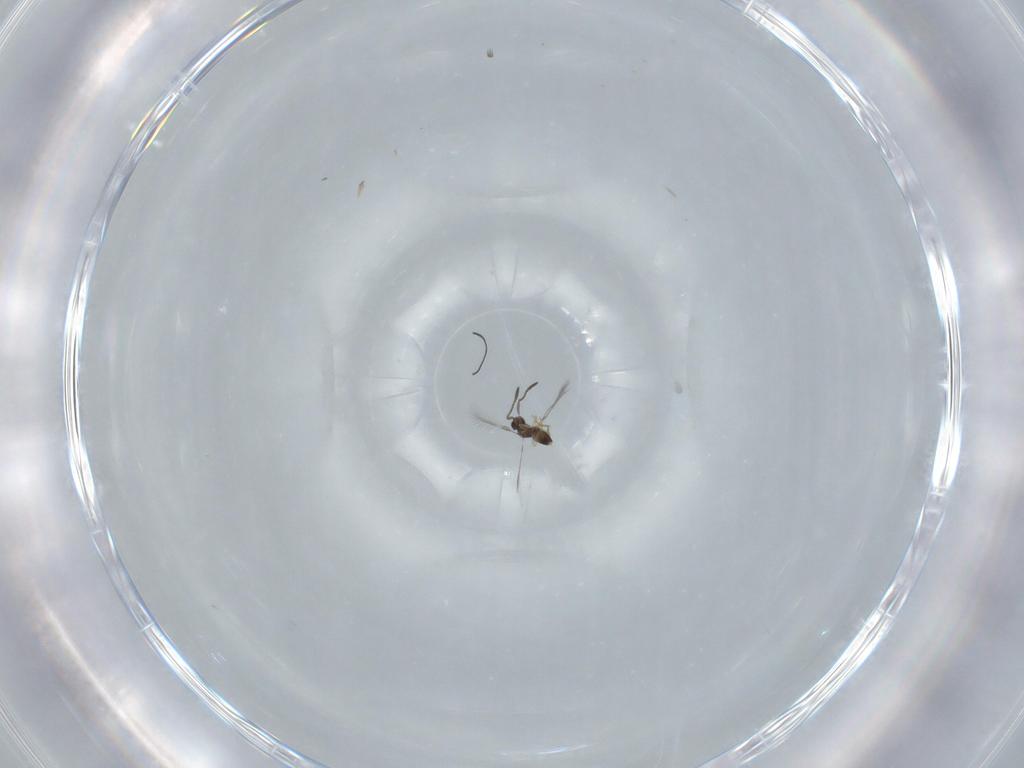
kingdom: Animalia
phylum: Arthropoda
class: Insecta
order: Hymenoptera
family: Mymaridae
